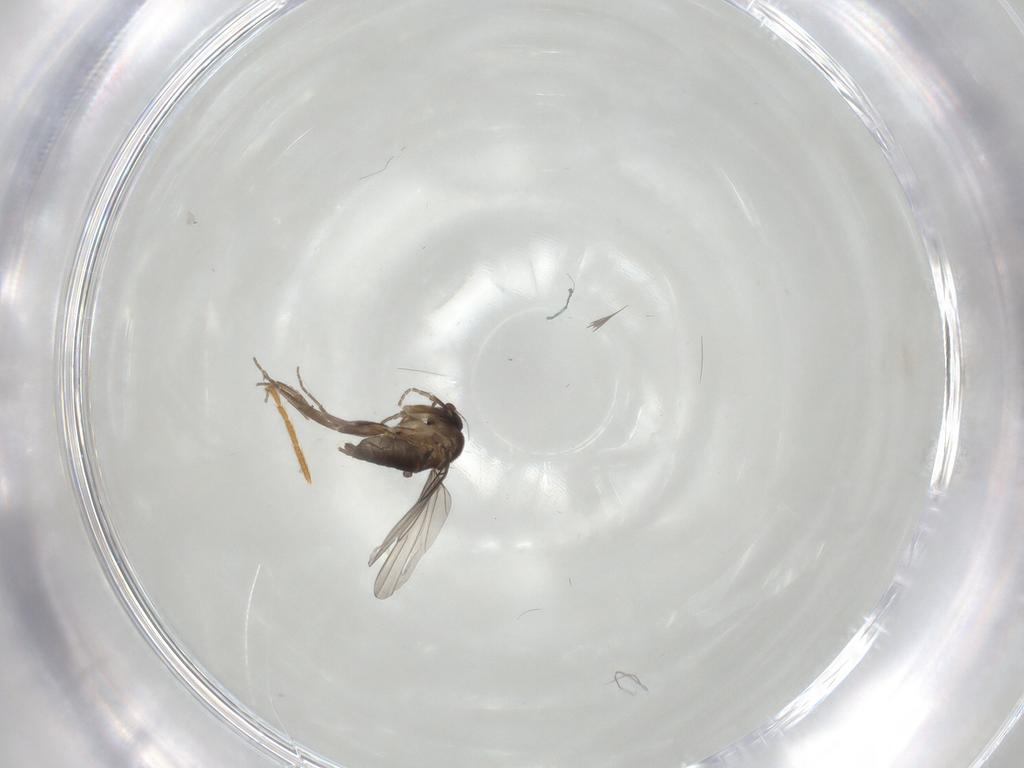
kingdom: Animalia
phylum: Arthropoda
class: Insecta
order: Diptera
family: Phoridae
